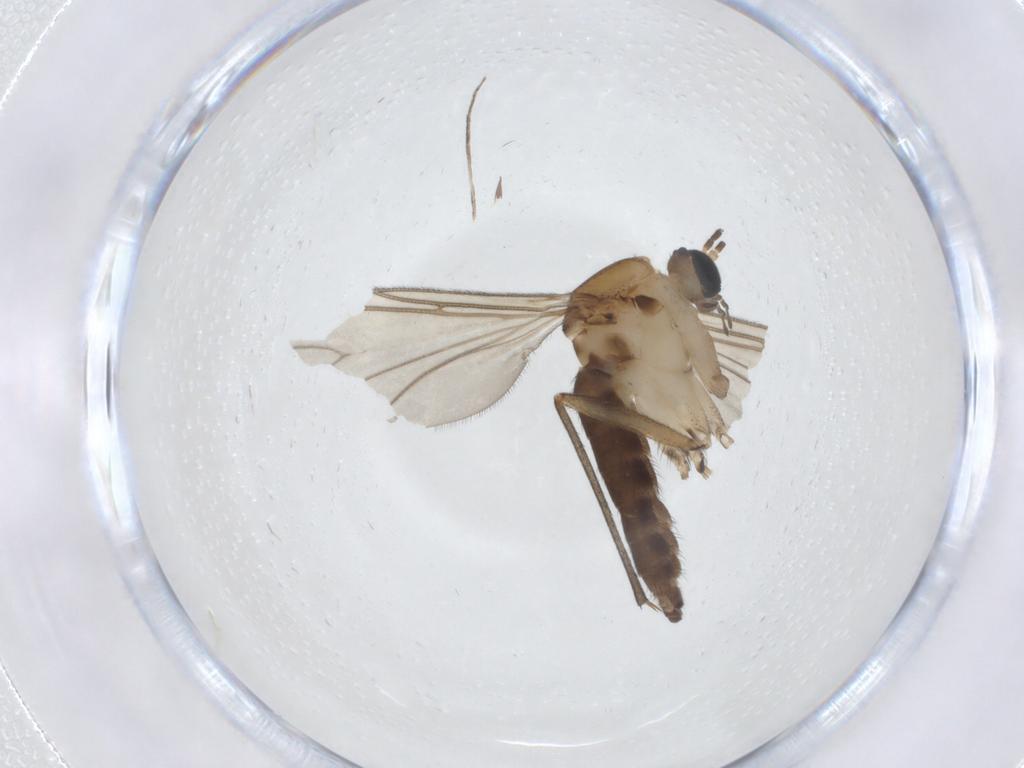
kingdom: Animalia
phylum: Arthropoda
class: Insecta
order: Diptera
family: Sciaridae
